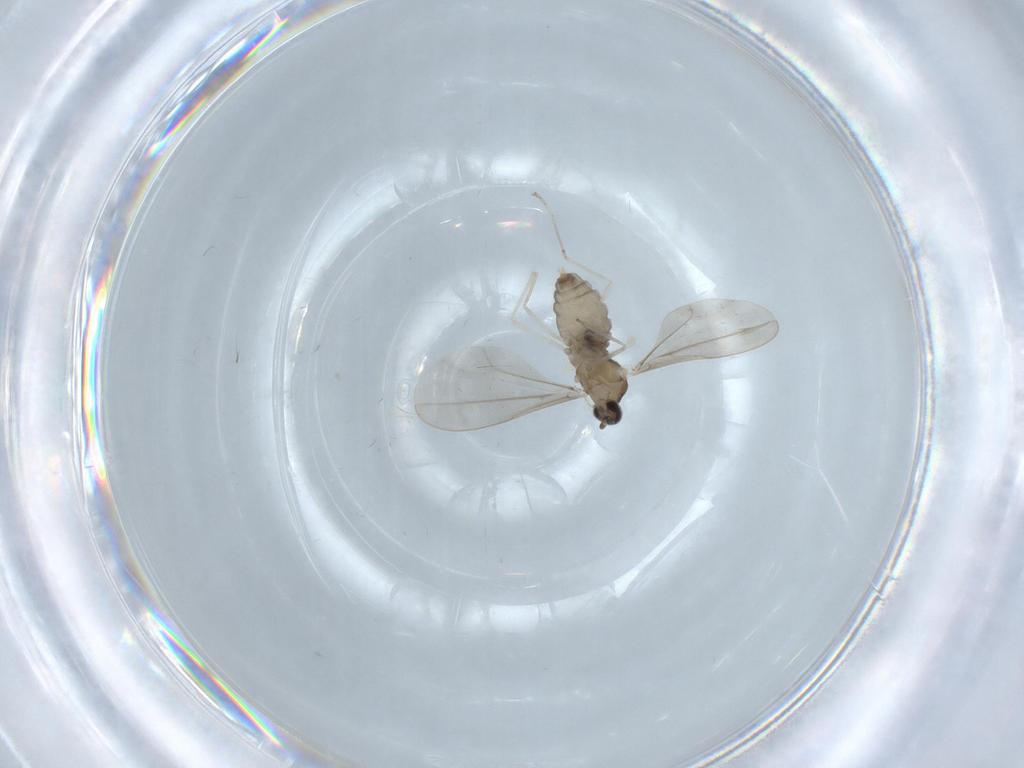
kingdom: Animalia
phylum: Arthropoda
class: Insecta
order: Diptera
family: Cecidomyiidae
